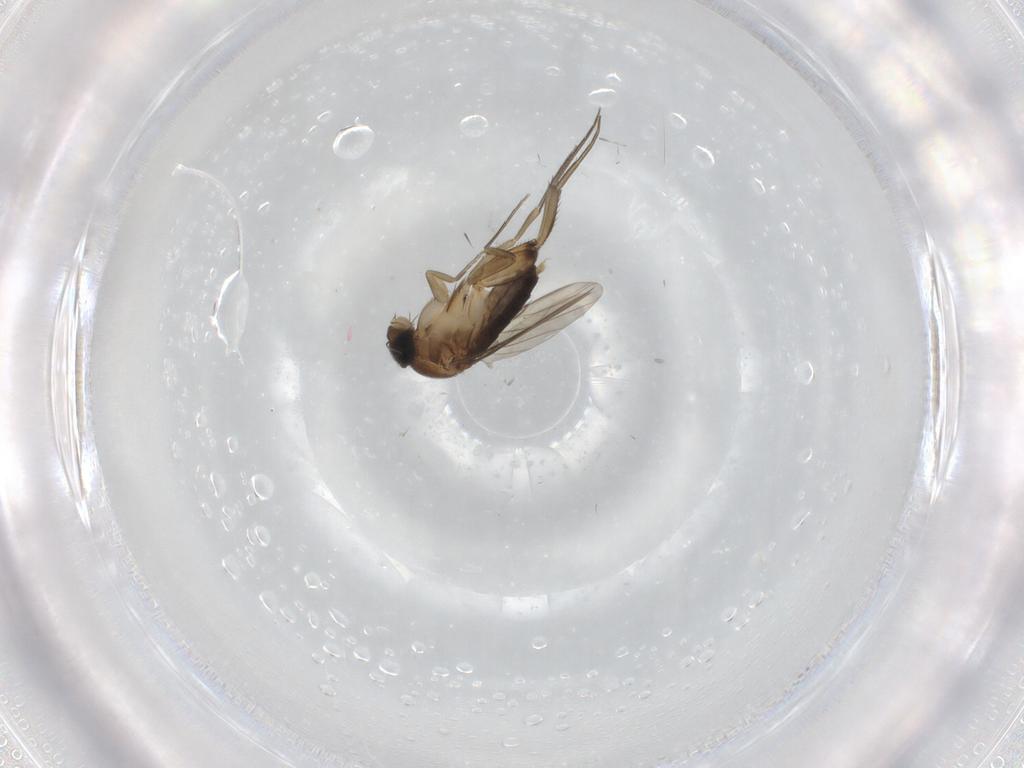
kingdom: Animalia
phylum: Arthropoda
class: Insecta
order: Diptera
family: Phoridae
